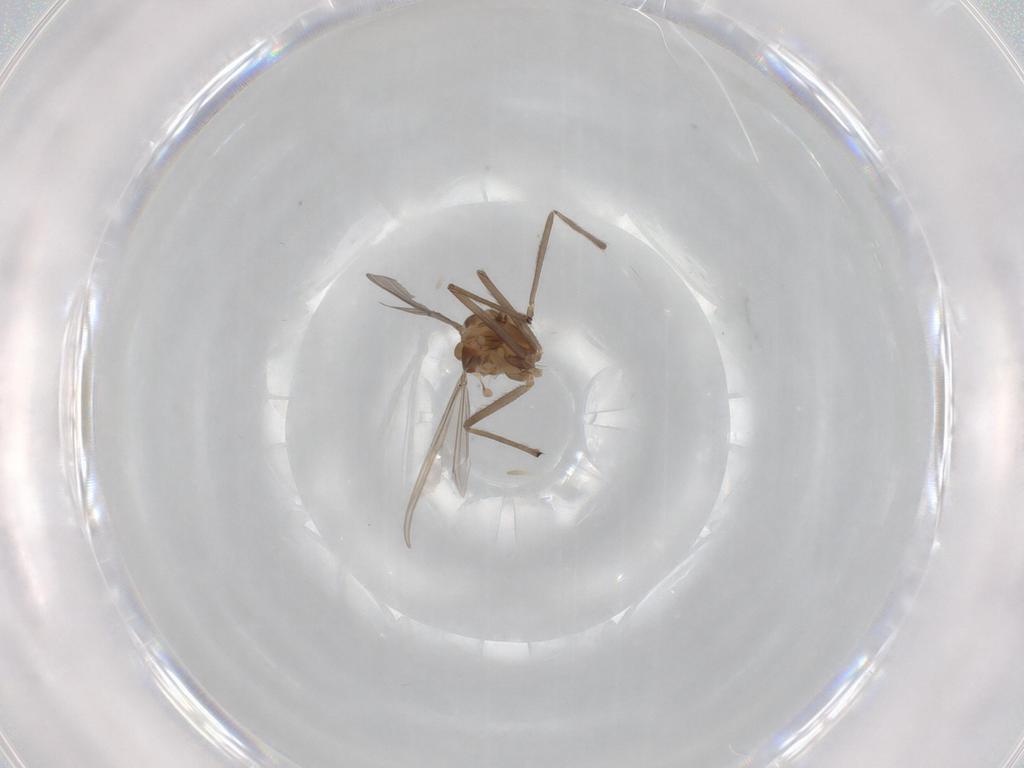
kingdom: Animalia
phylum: Arthropoda
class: Insecta
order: Diptera
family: Chironomidae
